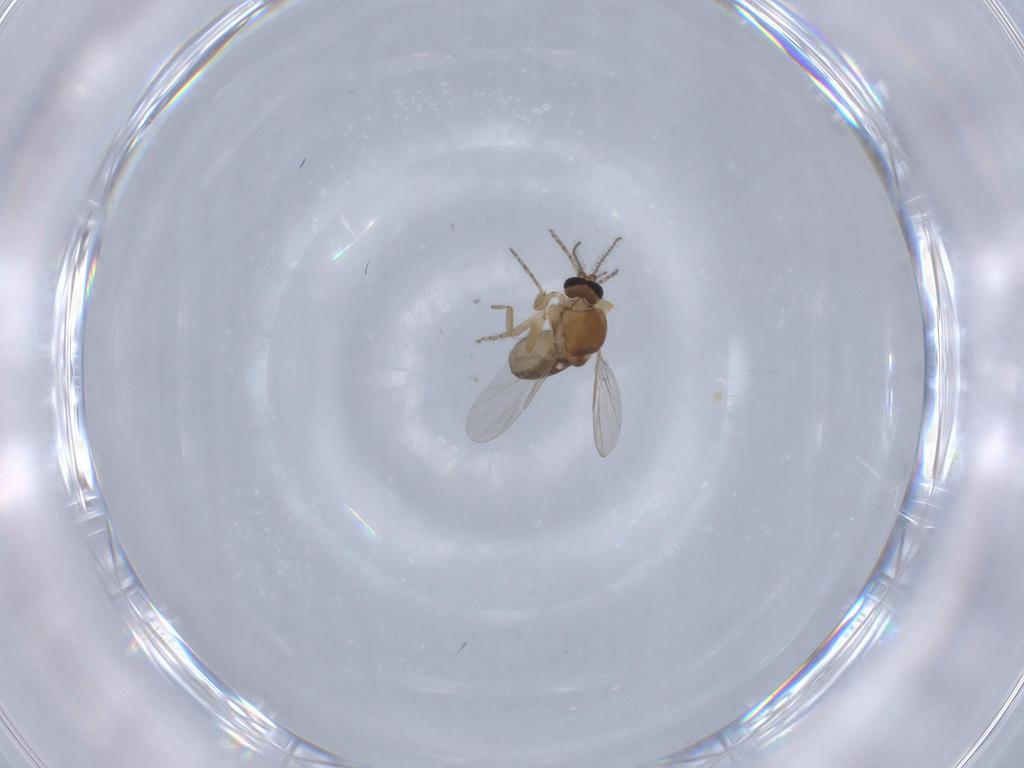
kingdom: Animalia
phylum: Arthropoda
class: Insecta
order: Diptera
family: Ceratopogonidae
